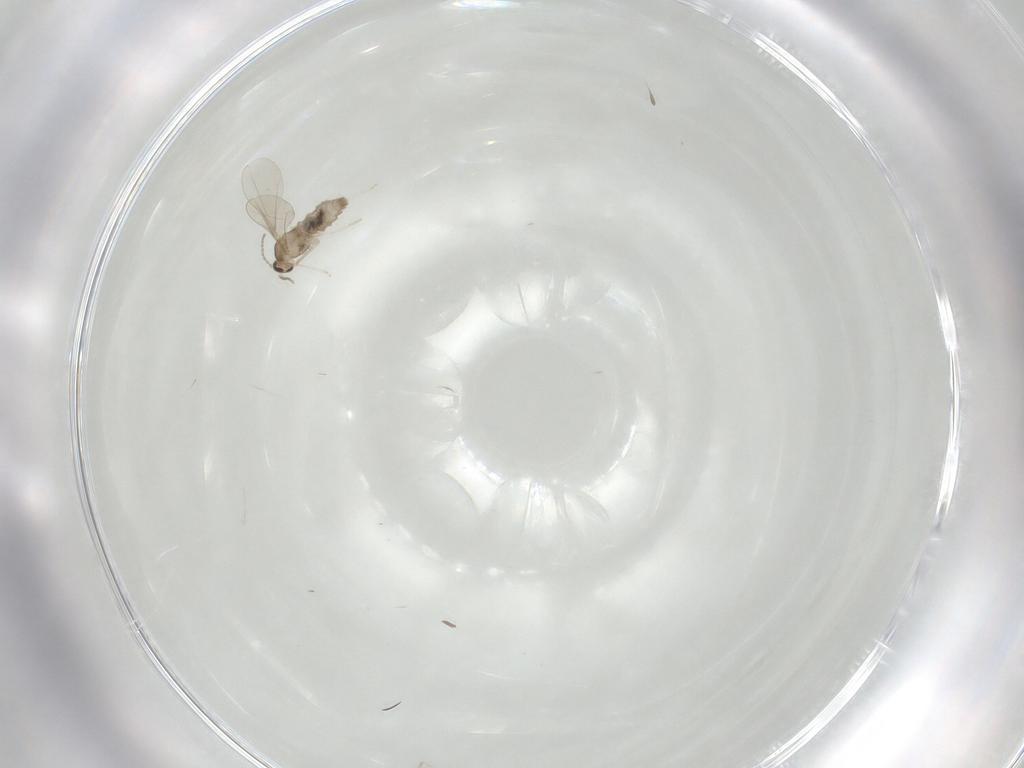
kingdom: Animalia
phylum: Arthropoda
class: Insecta
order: Diptera
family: Cecidomyiidae
